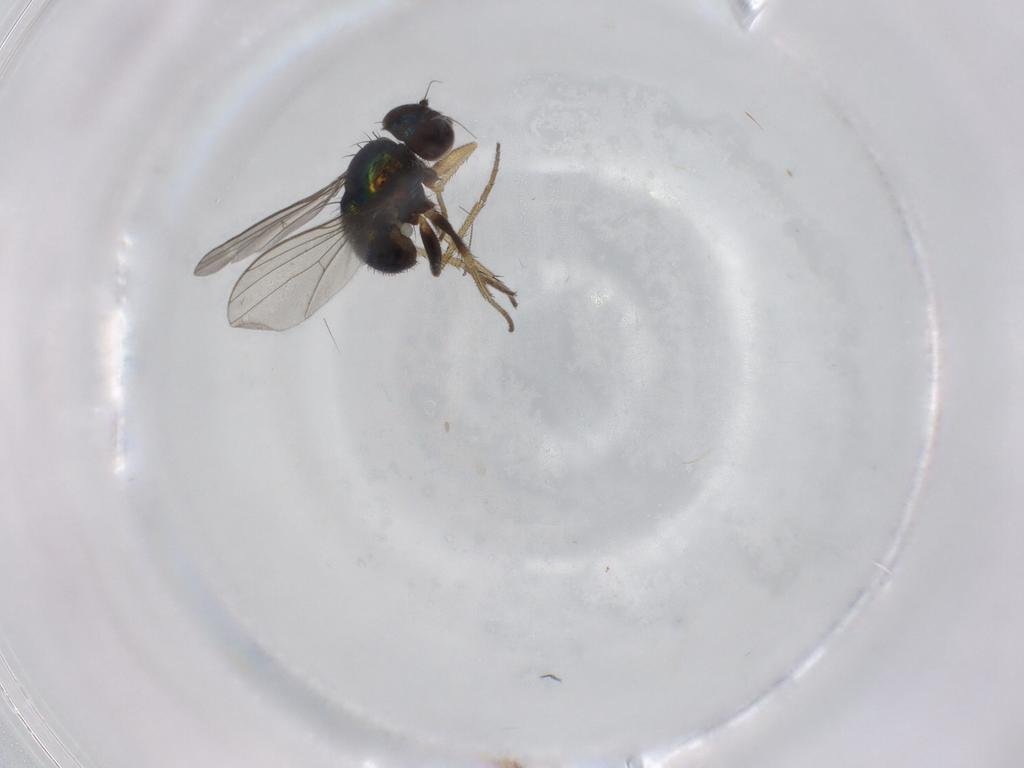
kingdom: Animalia
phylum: Arthropoda
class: Insecta
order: Diptera
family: Chironomidae
